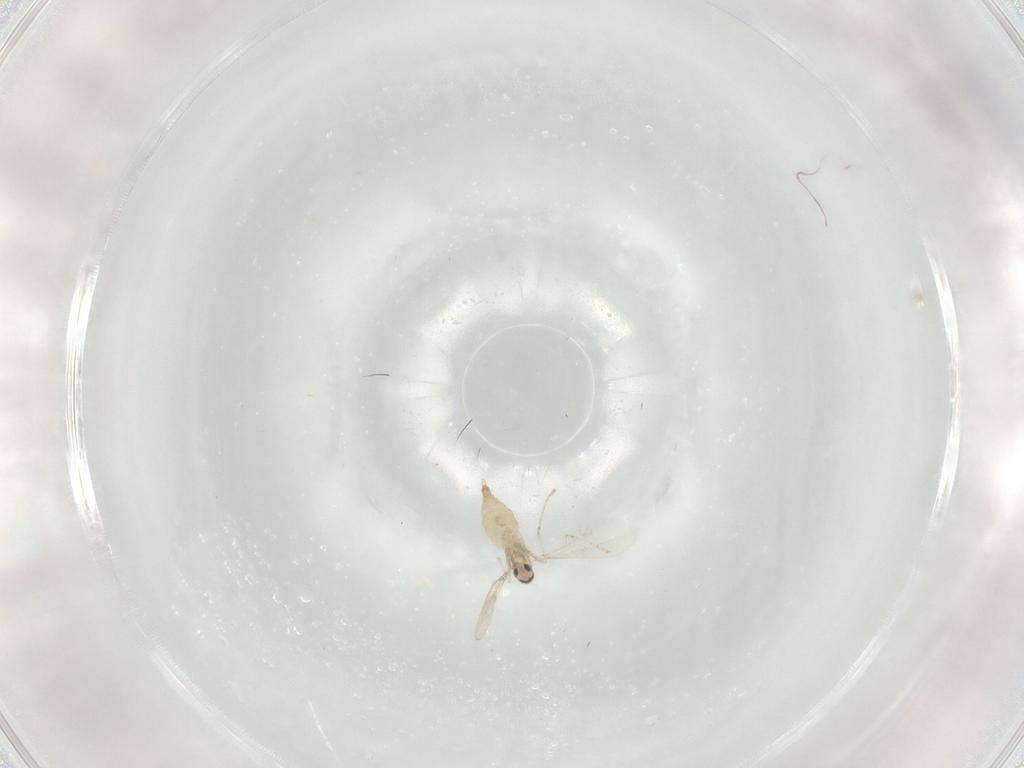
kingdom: Animalia
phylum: Arthropoda
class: Insecta
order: Diptera
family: Cecidomyiidae
